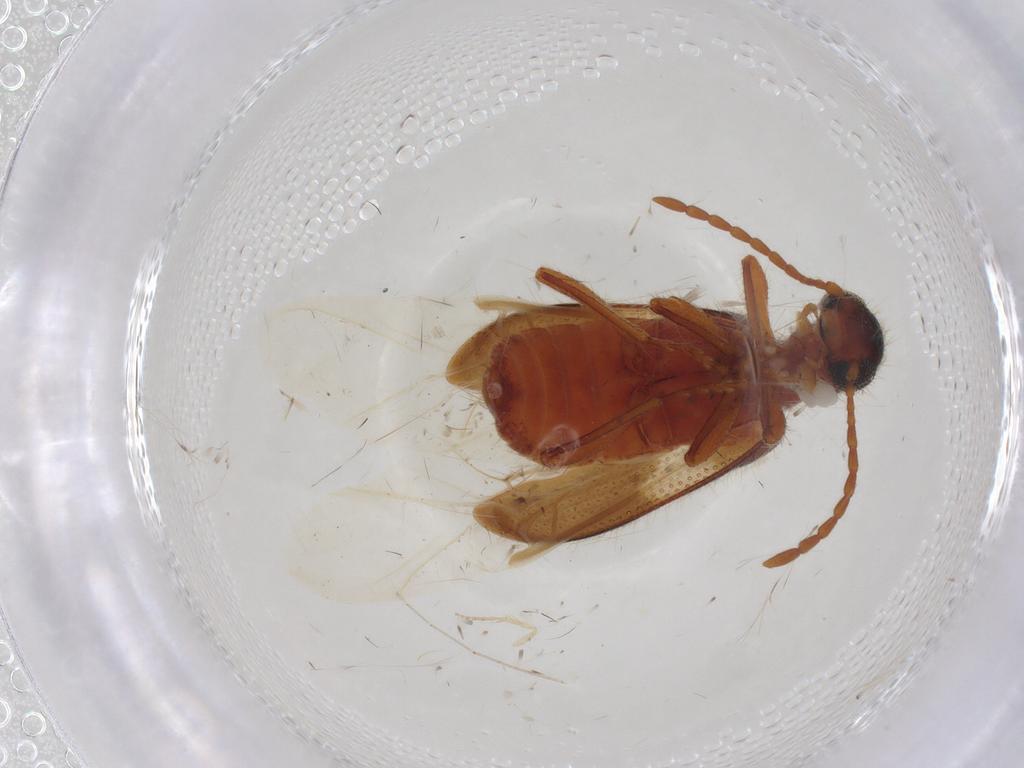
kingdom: Animalia
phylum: Arthropoda
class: Insecta
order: Coleoptera
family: Cleridae
